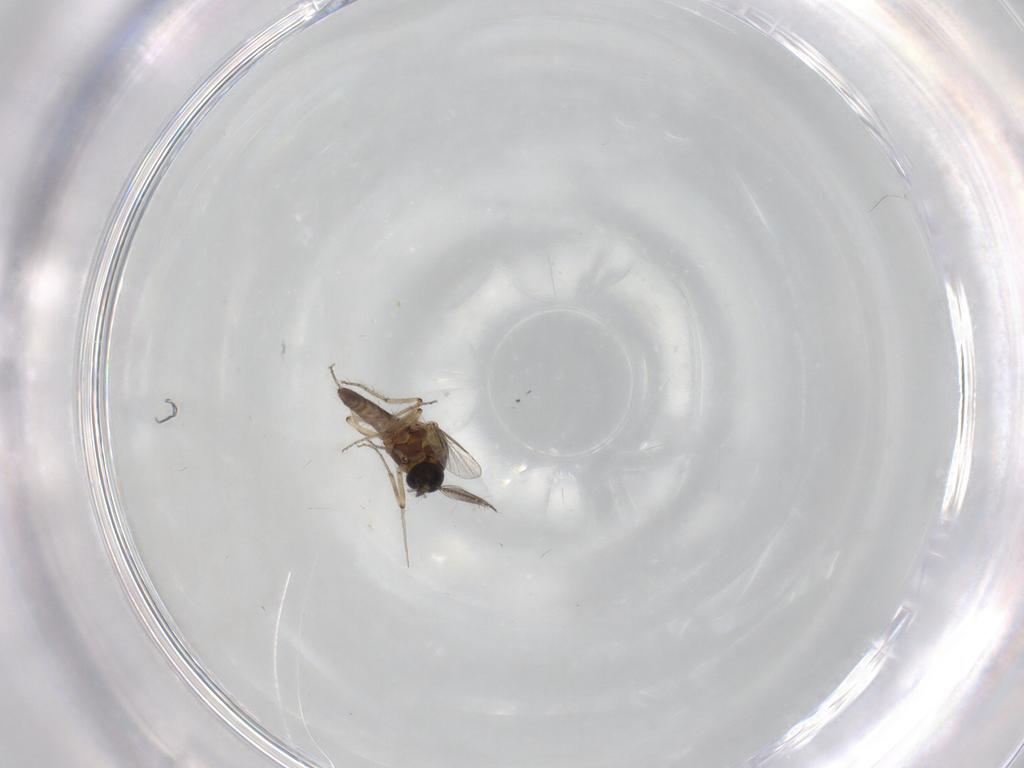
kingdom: Animalia
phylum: Arthropoda
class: Insecta
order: Diptera
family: Ceratopogonidae
